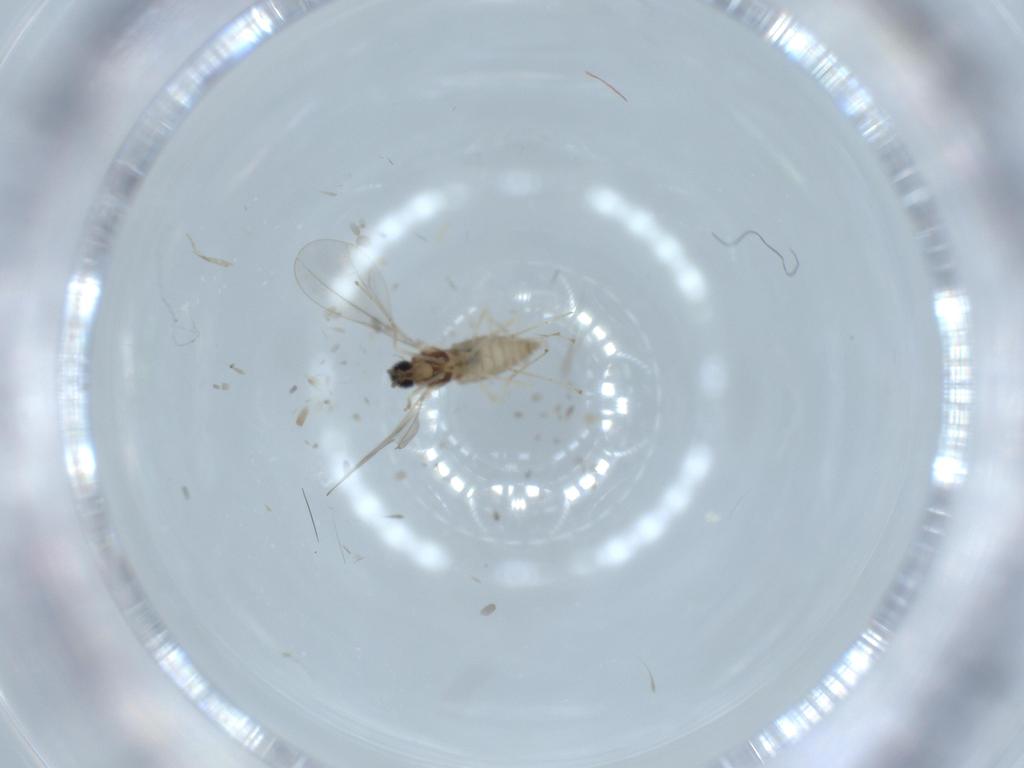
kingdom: Animalia
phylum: Arthropoda
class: Insecta
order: Diptera
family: Cecidomyiidae
